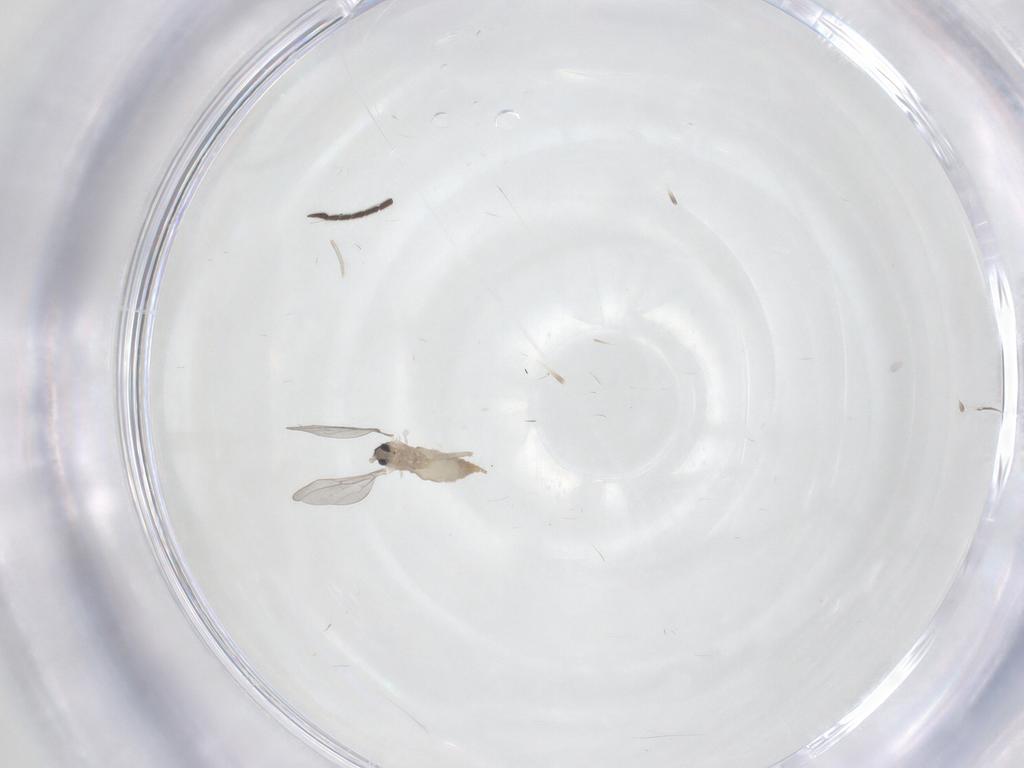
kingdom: Animalia
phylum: Arthropoda
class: Insecta
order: Diptera
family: Cecidomyiidae
